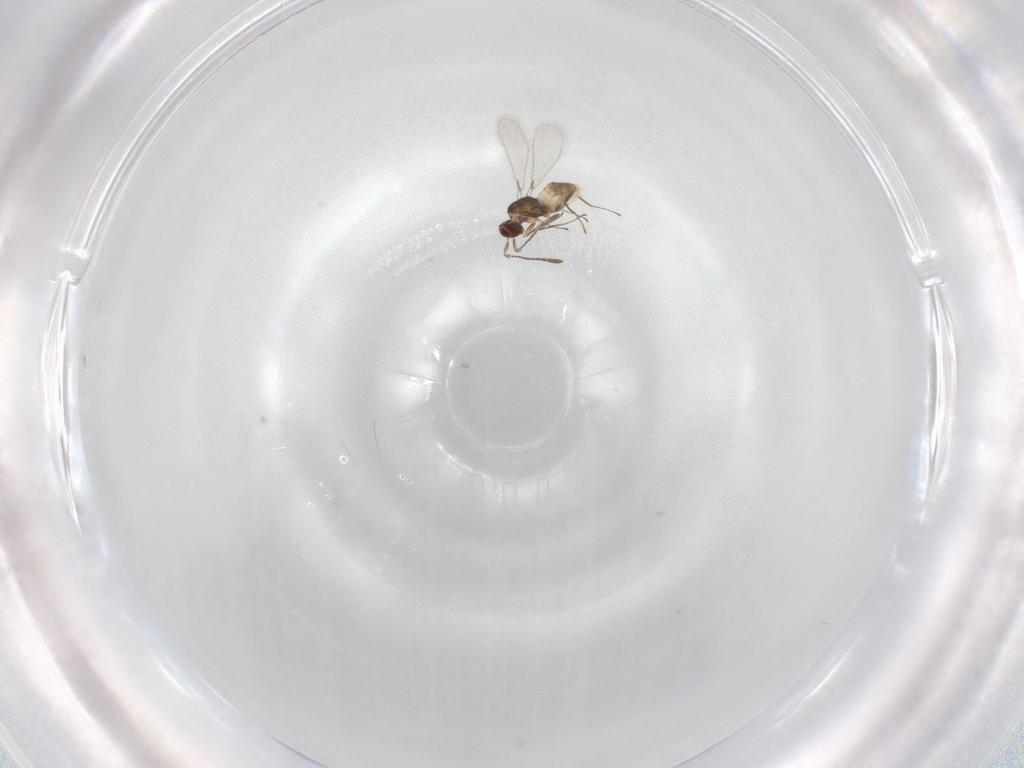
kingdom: Animalia
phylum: Arthropoda
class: Insecta
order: Hymenoptera
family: Mymaridae
